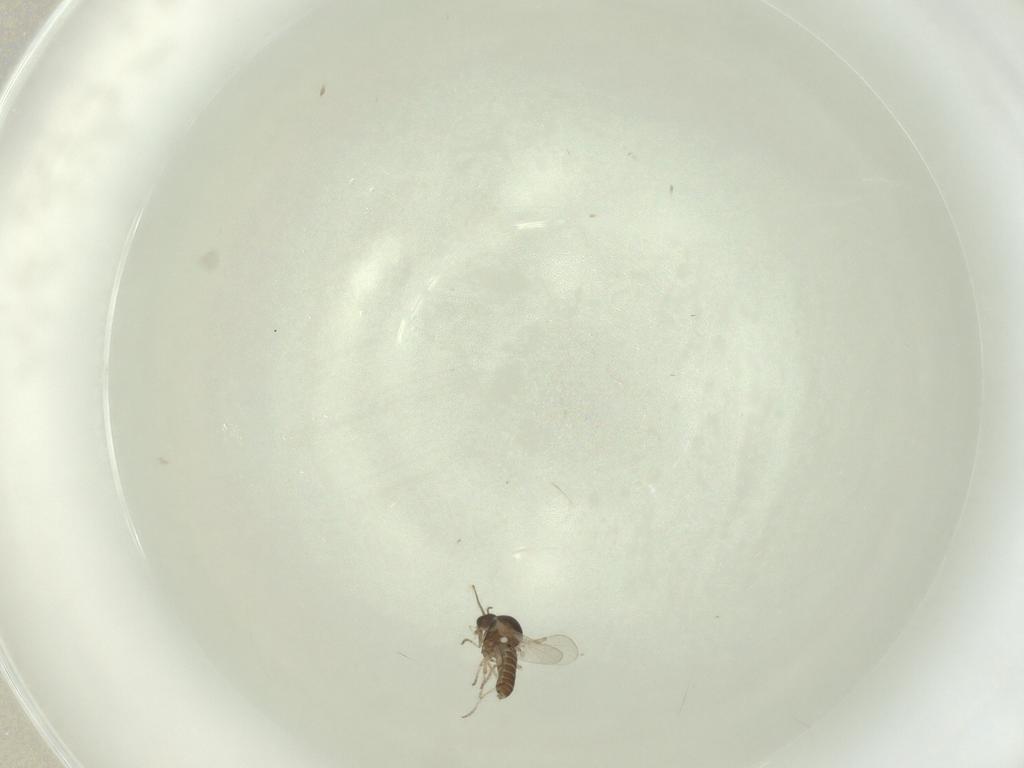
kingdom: Animalia
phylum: Arthropoda
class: Insecta
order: Diptera
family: Ceratopogonidae
